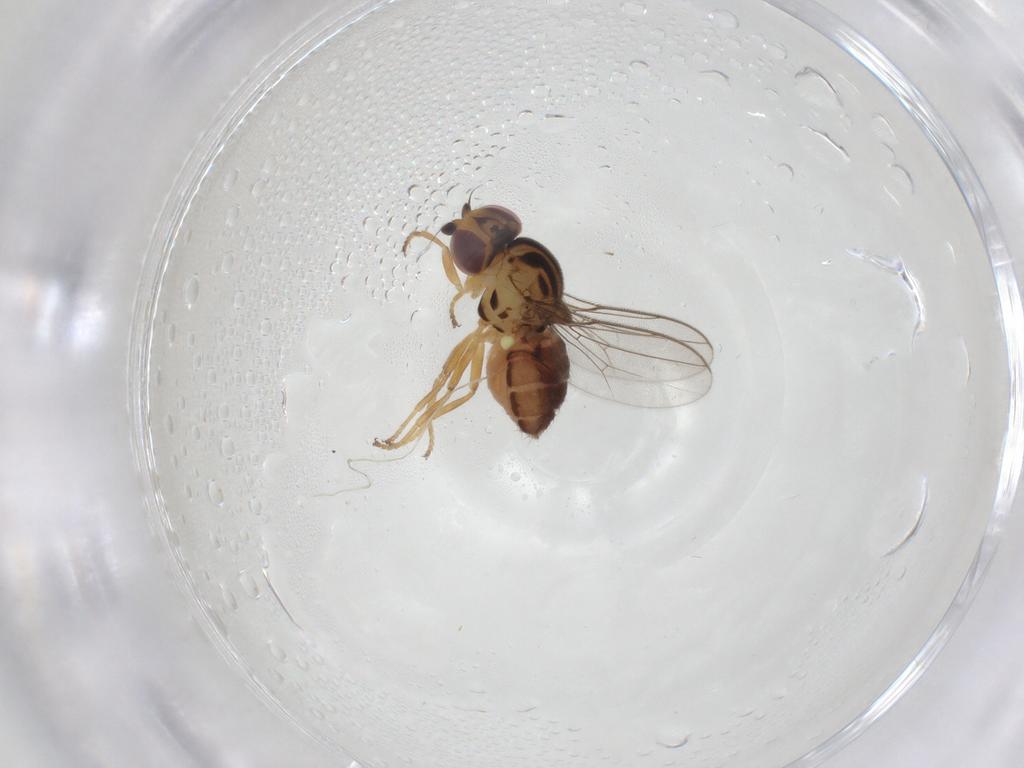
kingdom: Animalia
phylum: Arthropoda
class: Insecta
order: Diptera
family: Chloropidae
